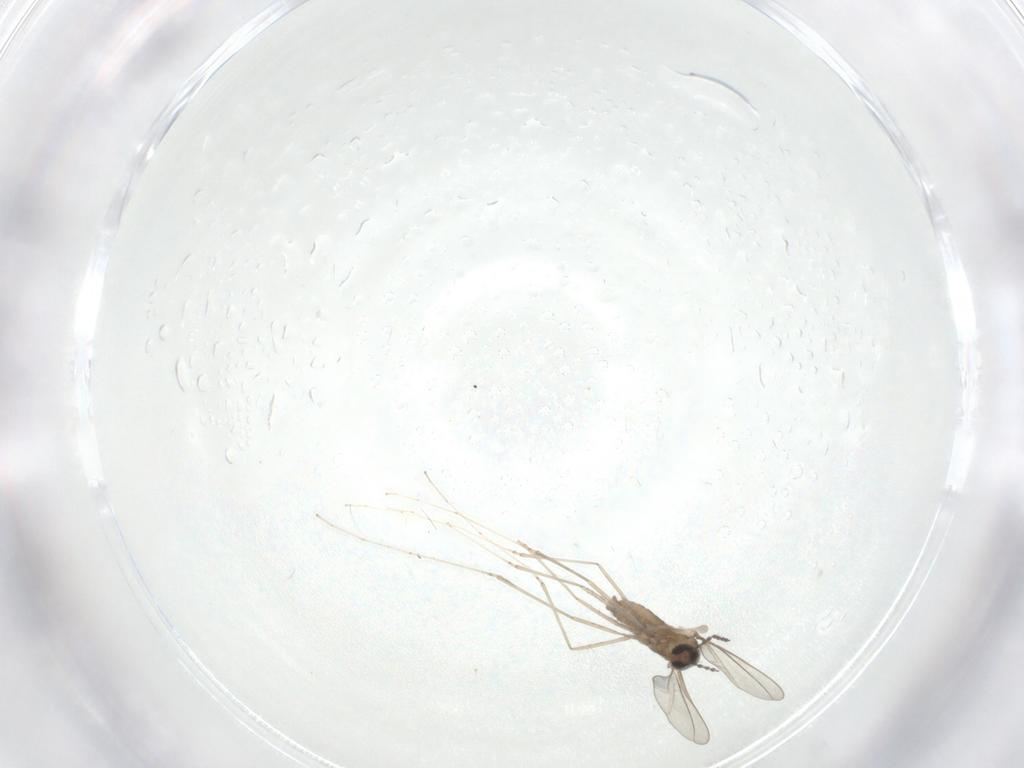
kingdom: Animalia
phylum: Arthropoda
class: Insecta
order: Diptera
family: Cecidomyiidae
